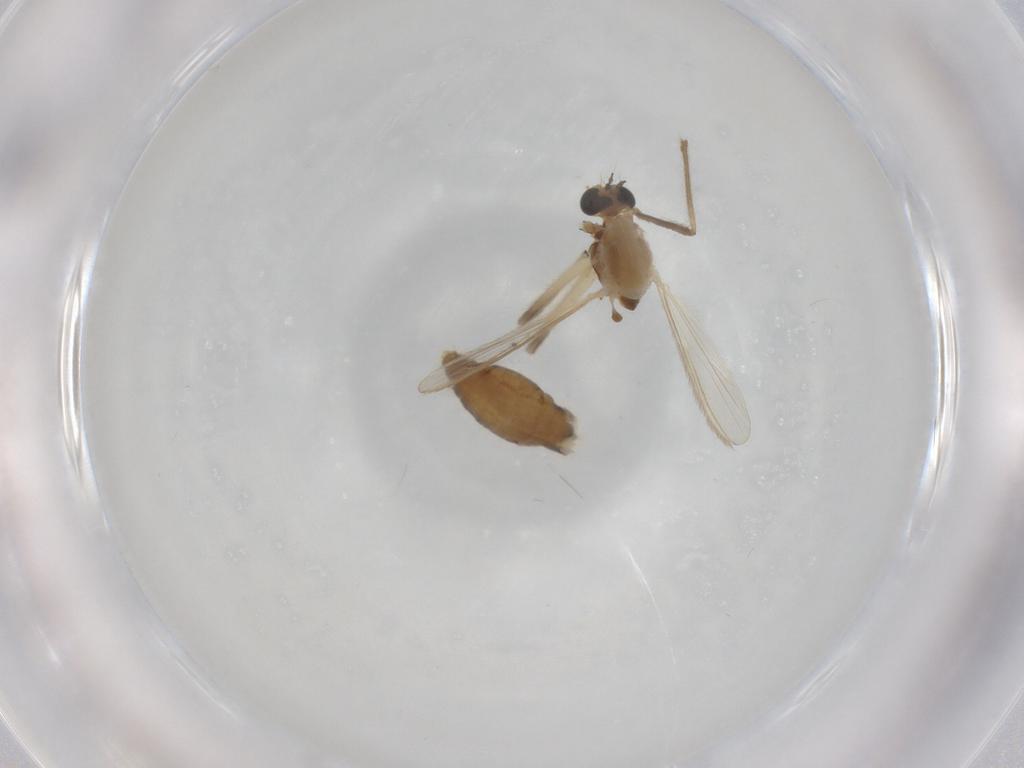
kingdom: Animalia
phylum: Arthropoda
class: Insecta
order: Diptera
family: Chironomidae
